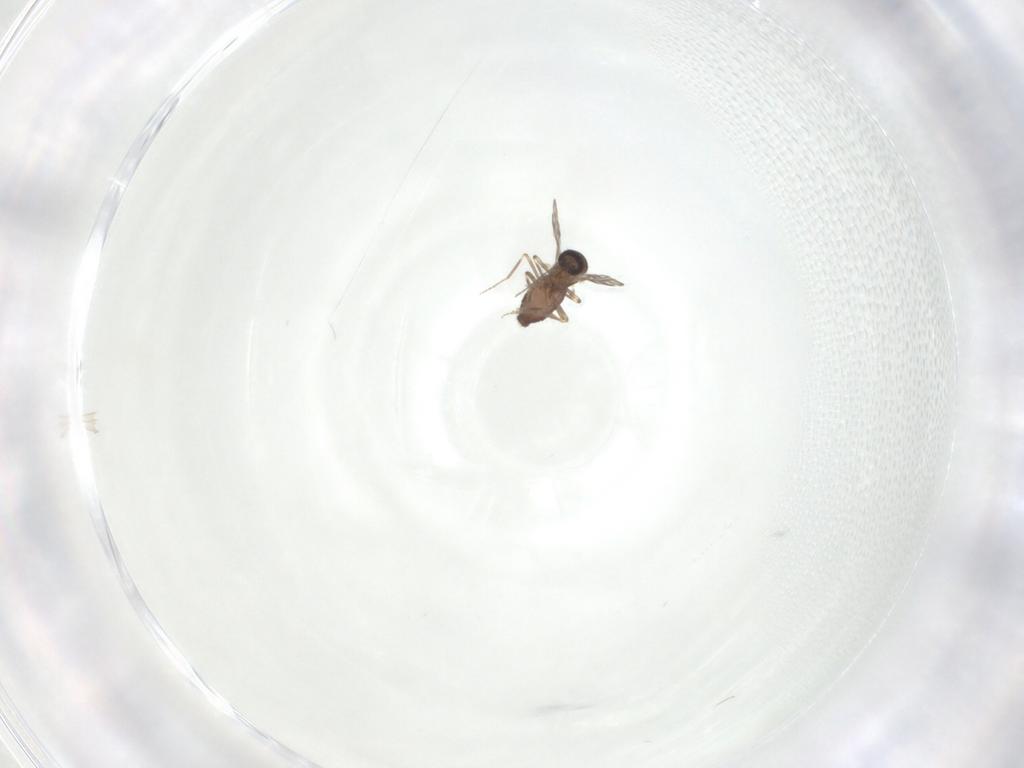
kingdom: Animalia
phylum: Arthropoda
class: Insecta
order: Diptera
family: Ceratopogonidae
